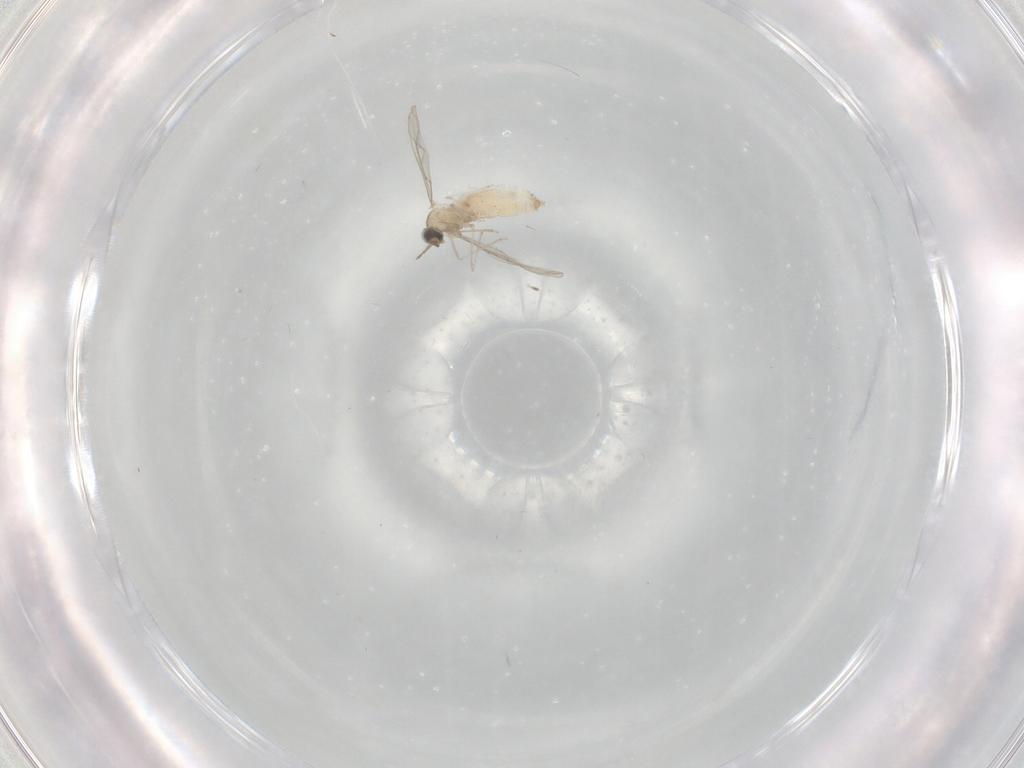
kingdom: Animalia
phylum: Arthropoda
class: Insecta
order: Diptera
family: Cecidomyiidae
